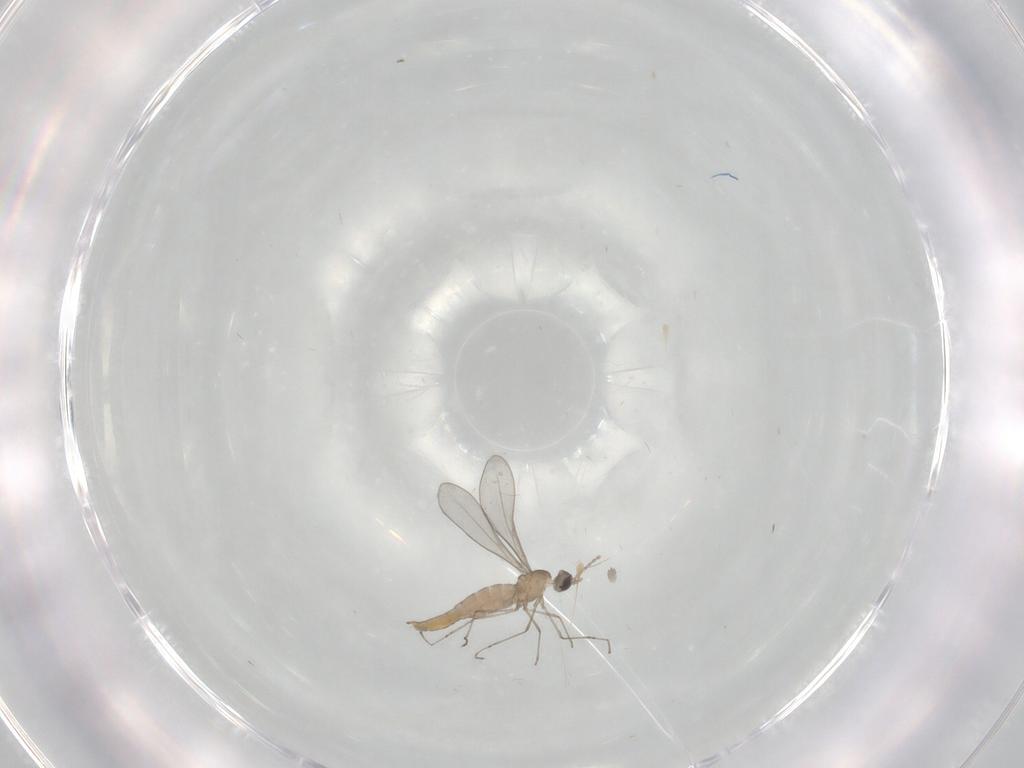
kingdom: Animalia
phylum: Arthropoda
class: Insecta
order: Diptera
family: Cecidomyiidae
